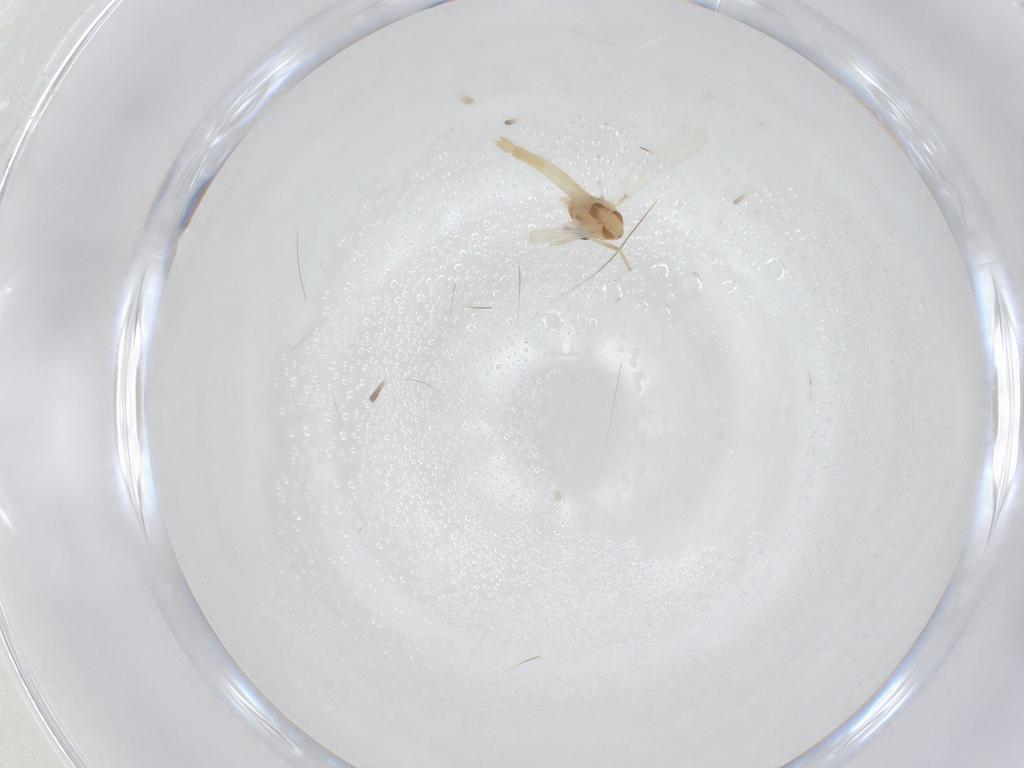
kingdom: Animalia
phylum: Arthropoda
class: Insecta
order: Diptera
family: Chironomidae
